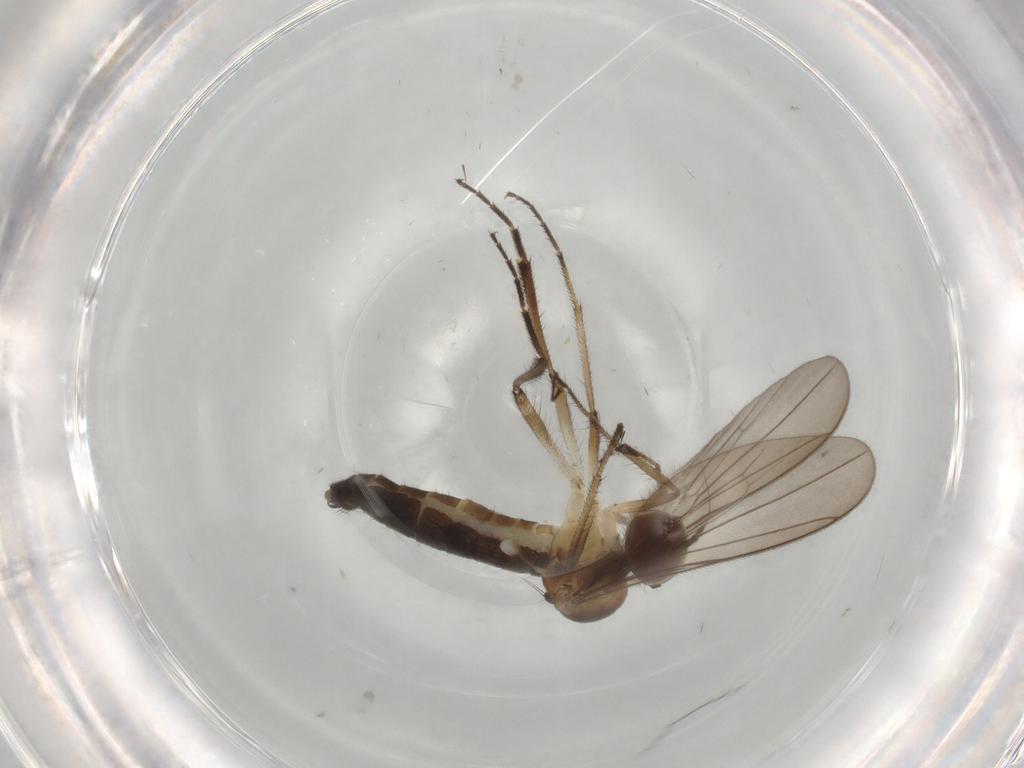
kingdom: Animalia
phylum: Arthropoda
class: Insecta
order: Diptera
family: Hybotidae
